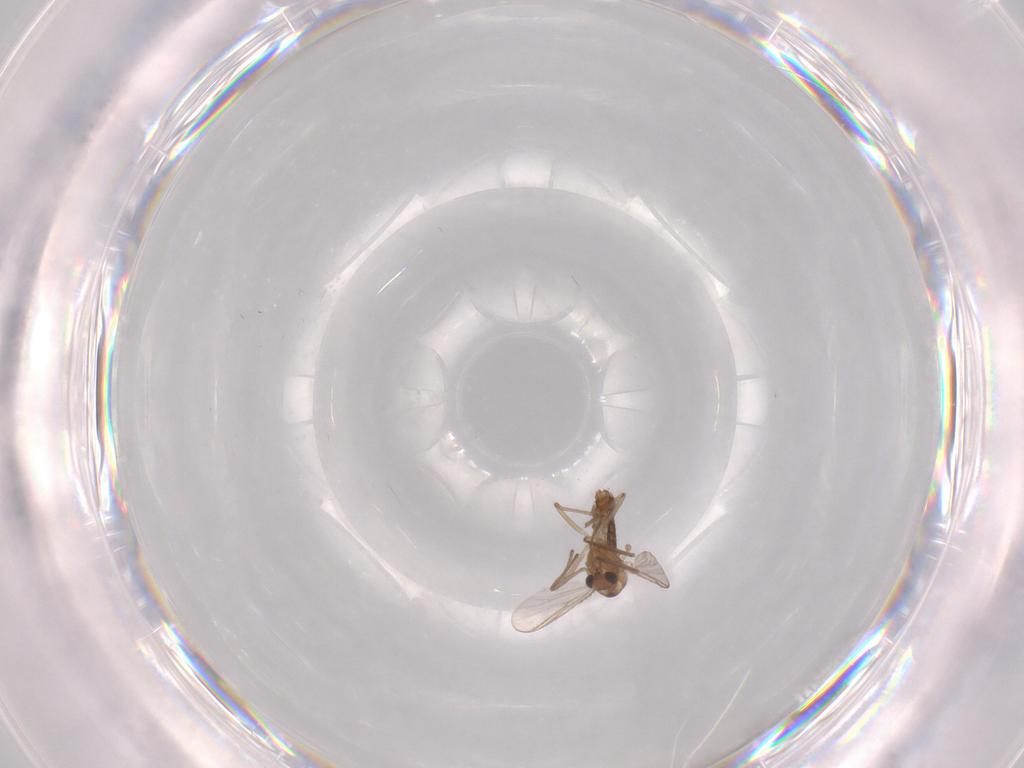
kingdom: Animalia
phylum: Arthropoda
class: Insecta
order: Diptera
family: Chironomidae
